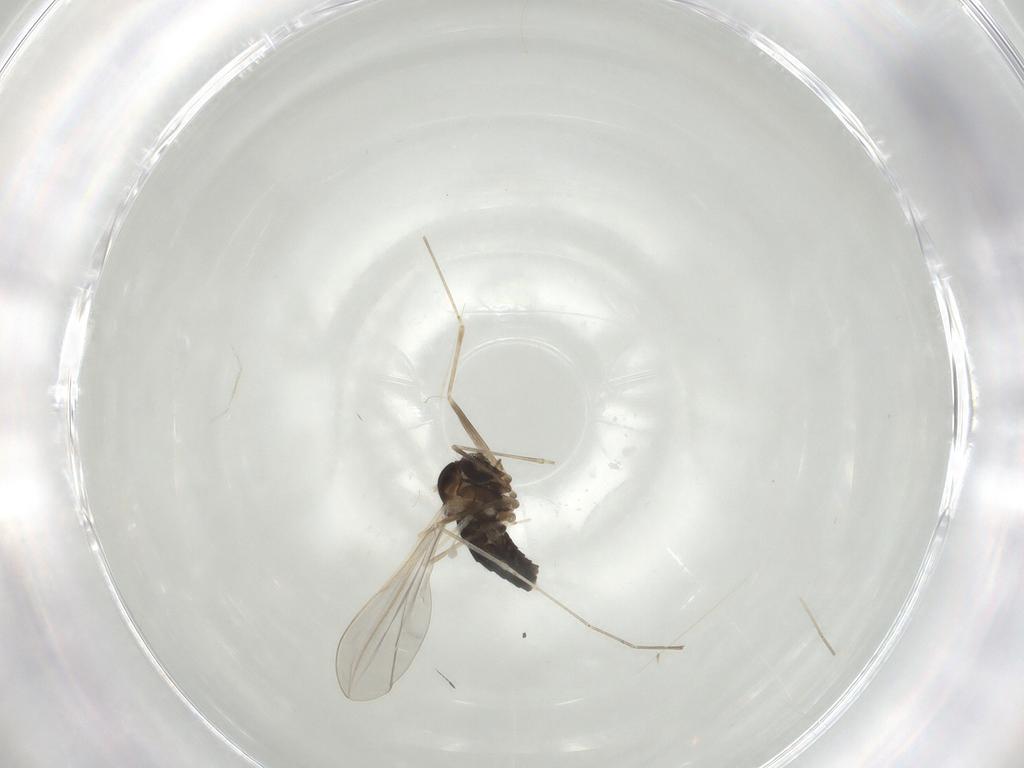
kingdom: Animalia
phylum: Arthropoda
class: Insecta
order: Diptera
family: Cecidomyiidae
